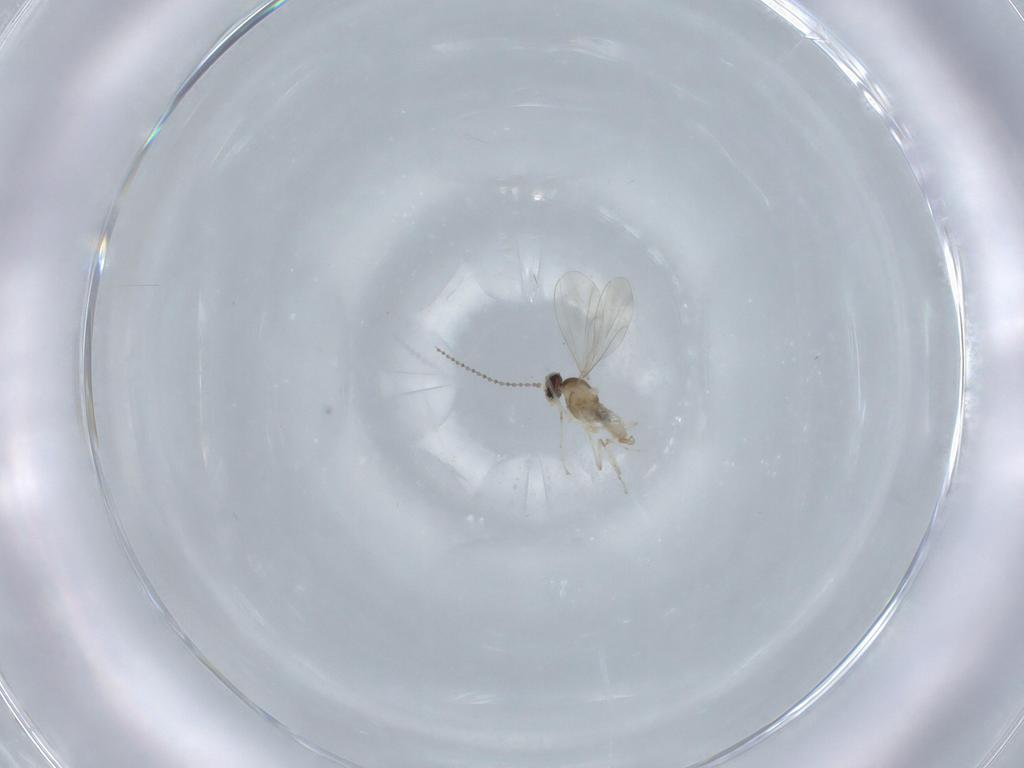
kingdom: Animalia
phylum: Arthropoda
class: Insecta
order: Diptera
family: Cecidomyiidae
